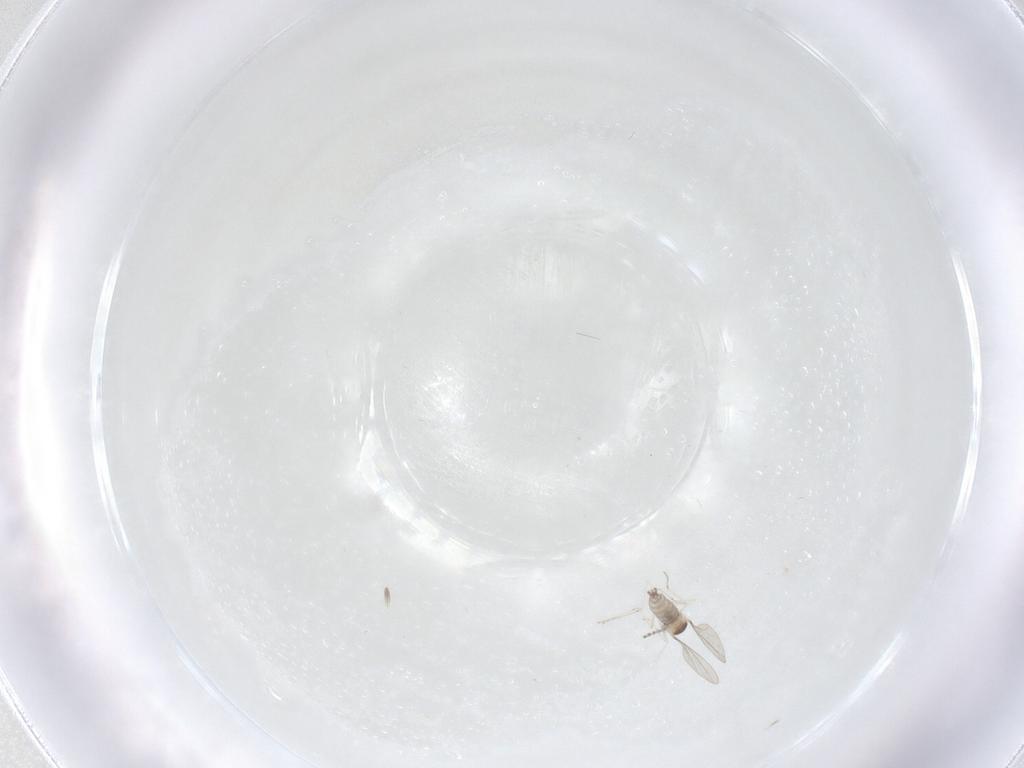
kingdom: Animalia
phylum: Arthropoda
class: Insecta
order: Diptera
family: Cecidomyiidae
